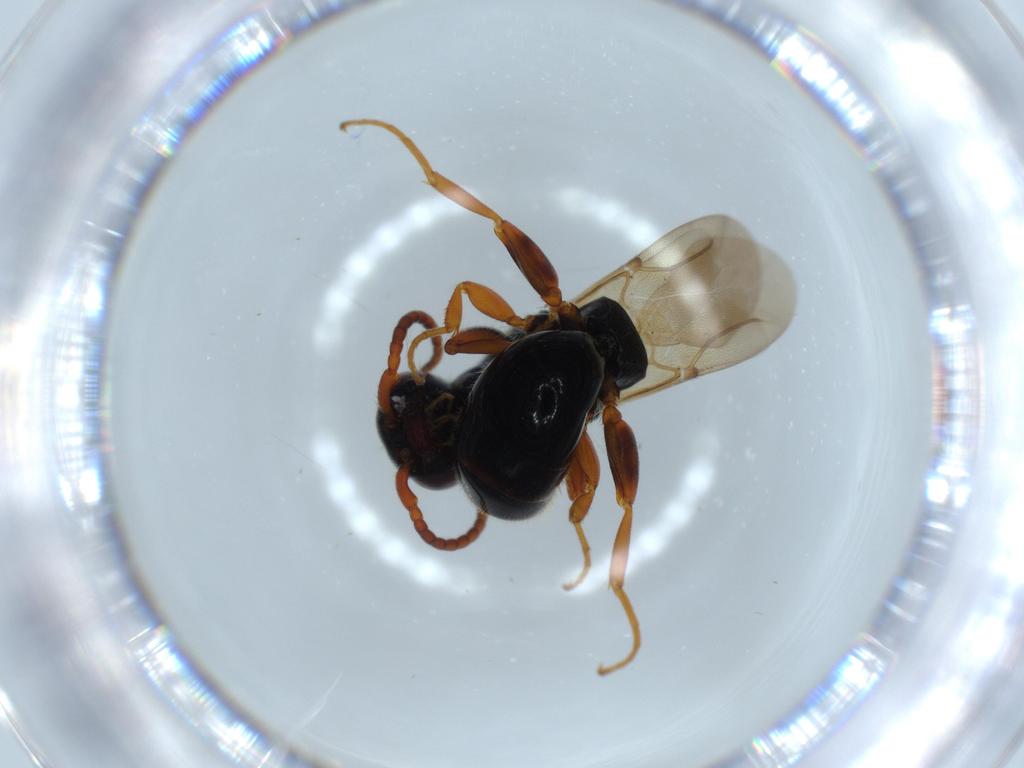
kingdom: Animalia
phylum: Arthropoda
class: Insecta
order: Hymenoptera
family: Bethylidae
